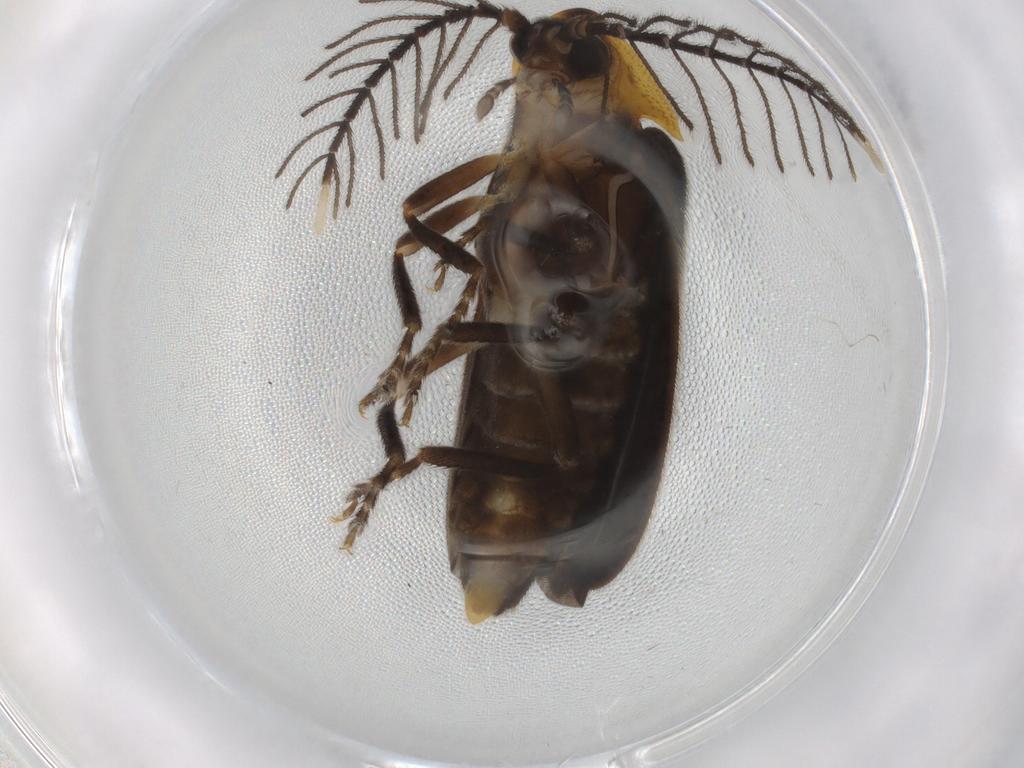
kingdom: Animalia
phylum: Arthropoda
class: Insecta
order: Coleoptera
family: Lampyridae
